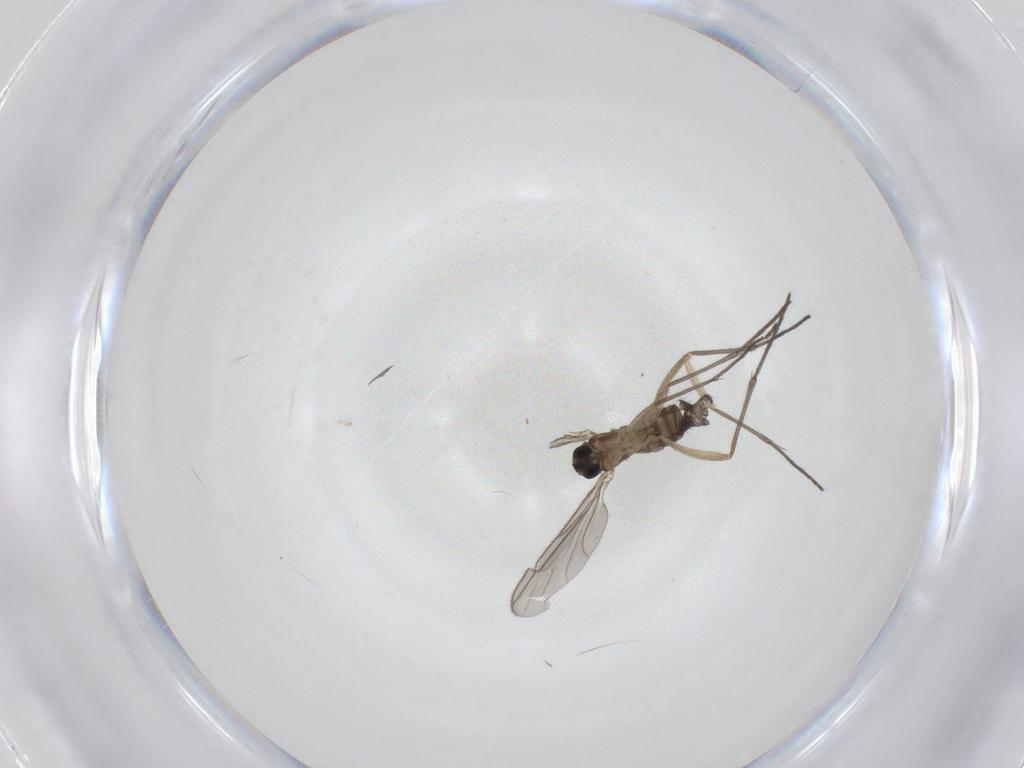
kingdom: Animalia
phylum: Arthropoda
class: Insecta
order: Diptera
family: Sciaridae
